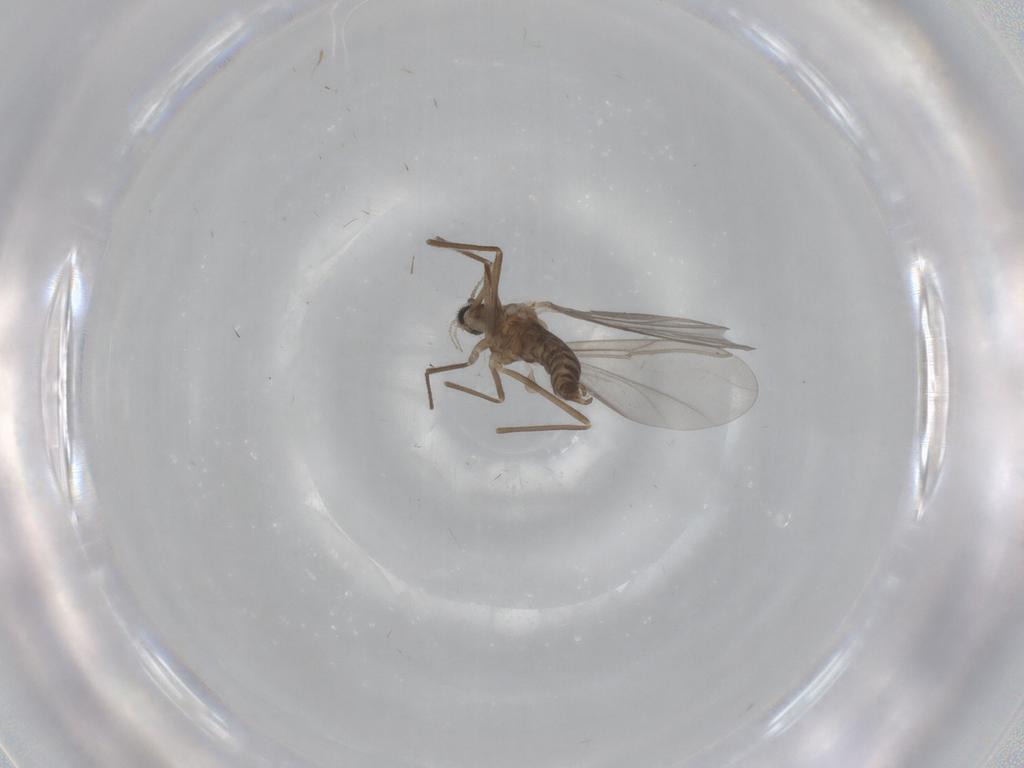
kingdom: Animalia
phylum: Arthropoda
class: Insecta
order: Diptera
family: Cecidomyiidae
